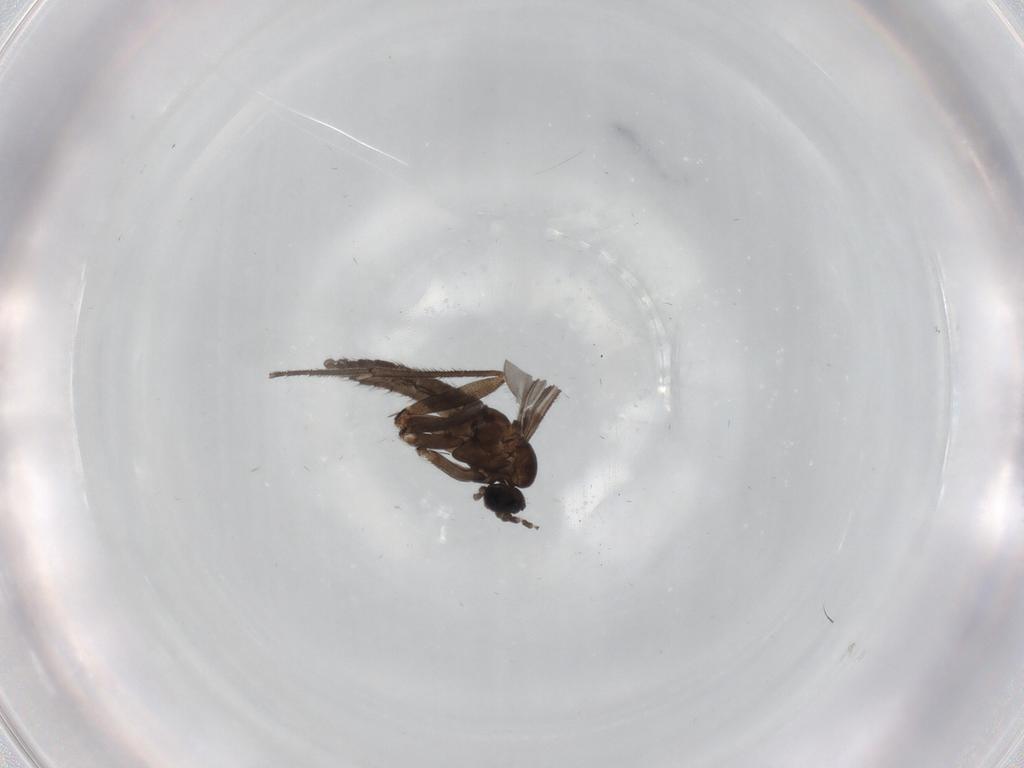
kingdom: Animalia
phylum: Arthropoda
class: Insecta
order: Diptera
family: Sciaridae
